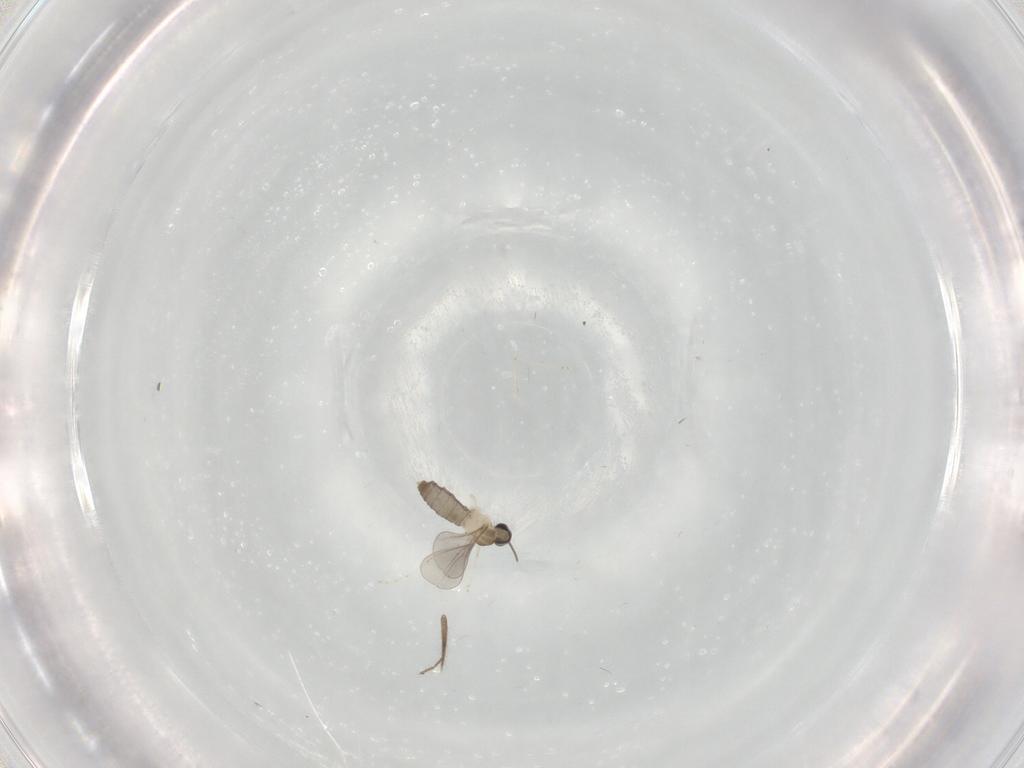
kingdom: Animalia
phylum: Arthropoda
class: Insecta
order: Diptera
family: Cecidomyiidae
